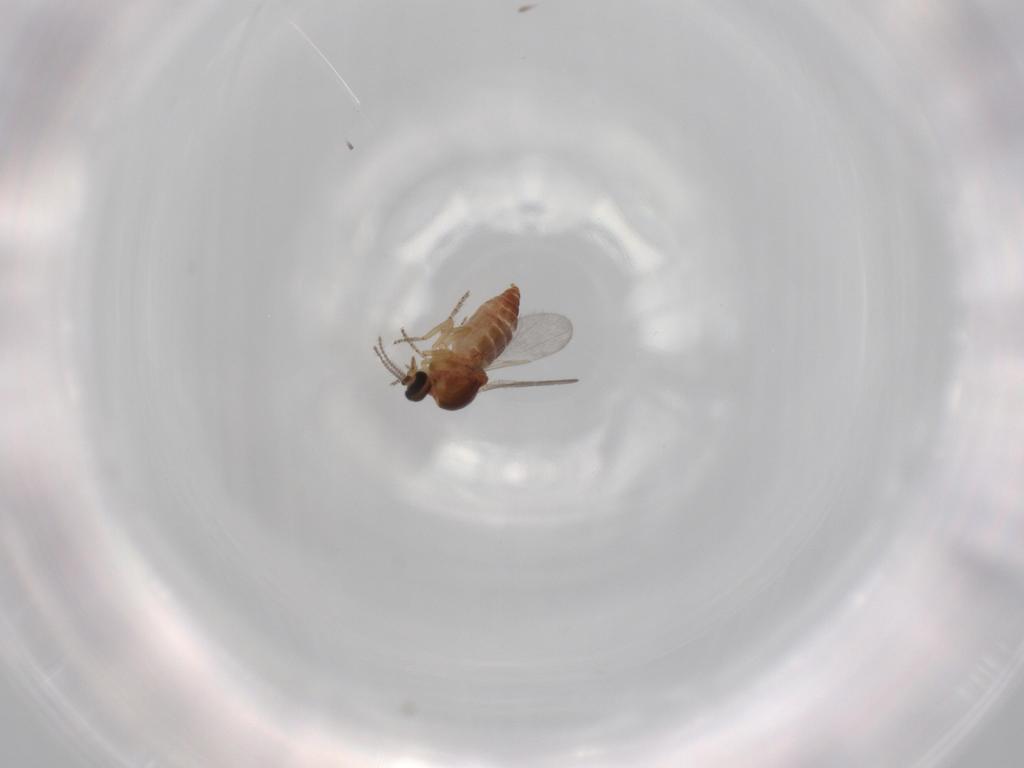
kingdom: Animalia
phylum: Arthropoda
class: Insecta
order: Diptera
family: Ceratopogonidae
